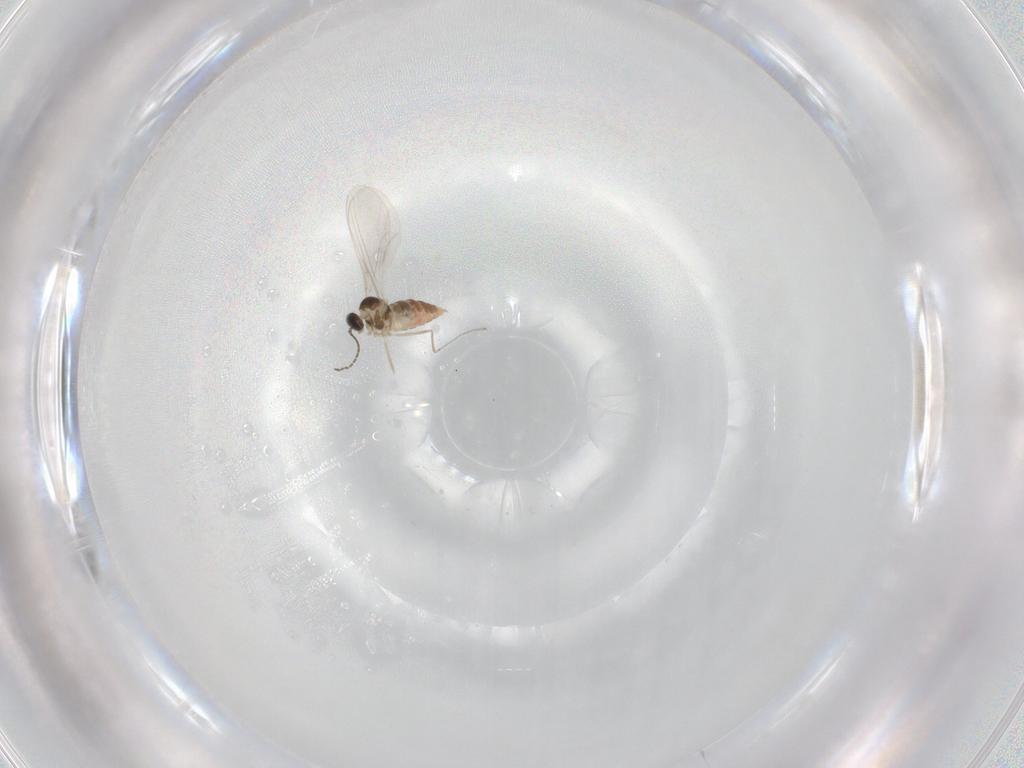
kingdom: Animalia
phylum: Arthropoda
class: Insecta
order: Diptera
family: Cecidomyiidae
